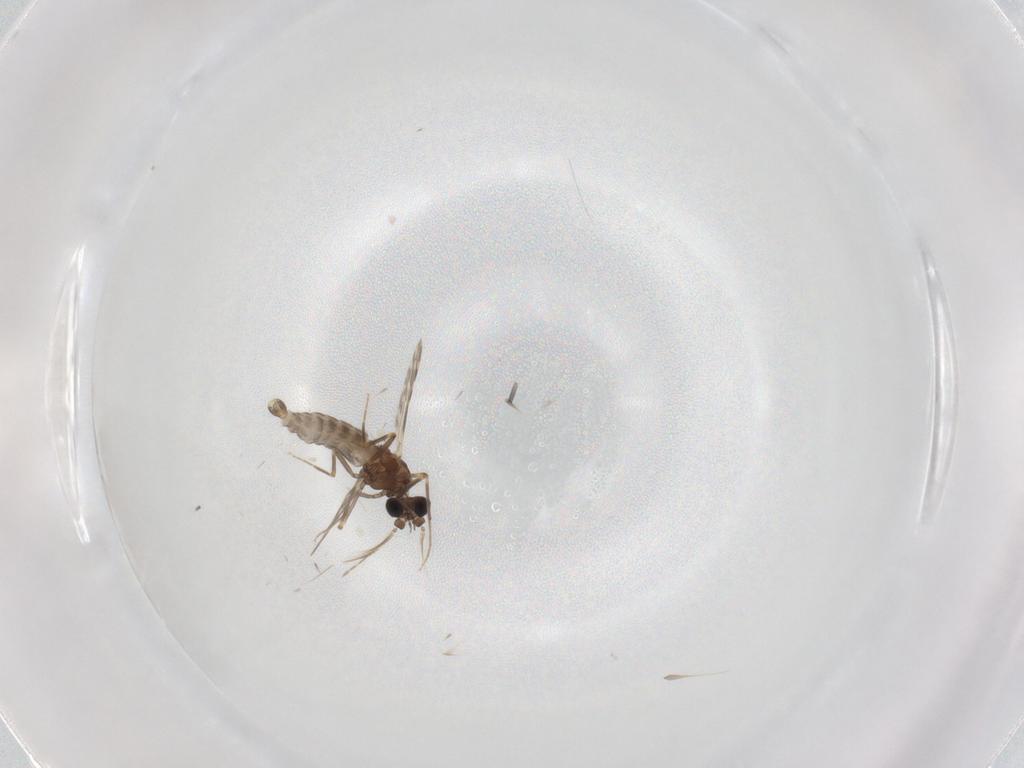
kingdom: Animalia
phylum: Arthropoda
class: Insecta
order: Diptera
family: Ceratopogonidae
